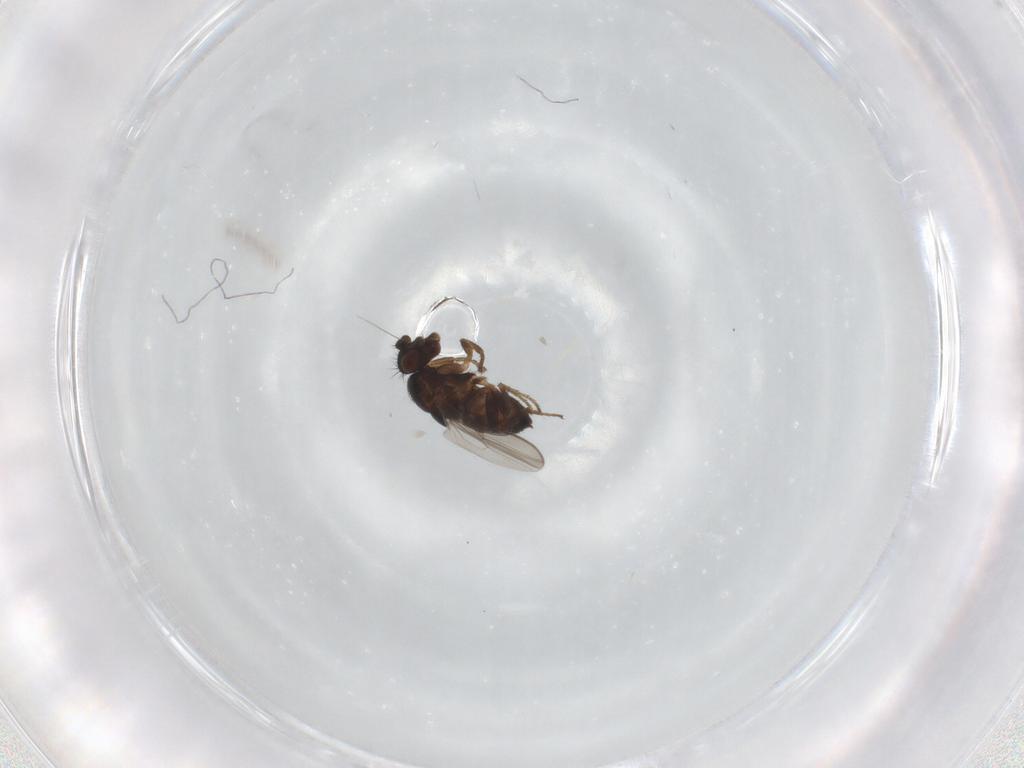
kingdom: Animalia
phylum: Arthropoda
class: Insecta
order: Diptera
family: Sphaeroceridae
